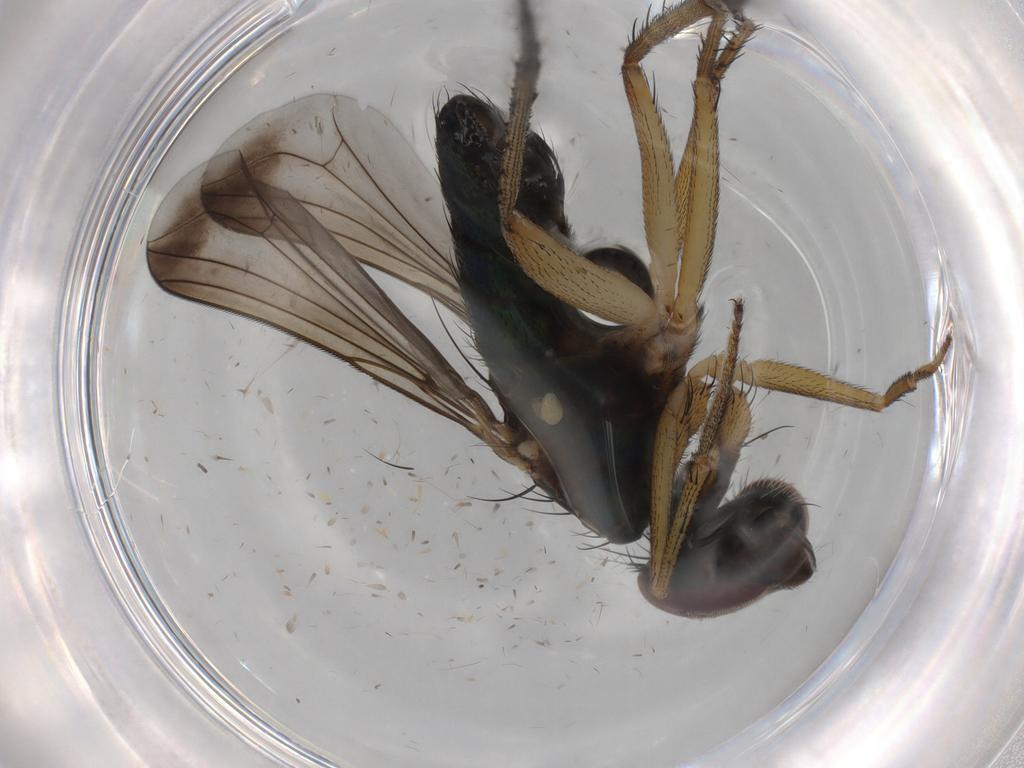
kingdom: Animalia
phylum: Arthropoda
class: Insecta
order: Diptera
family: Dolichopodidae
